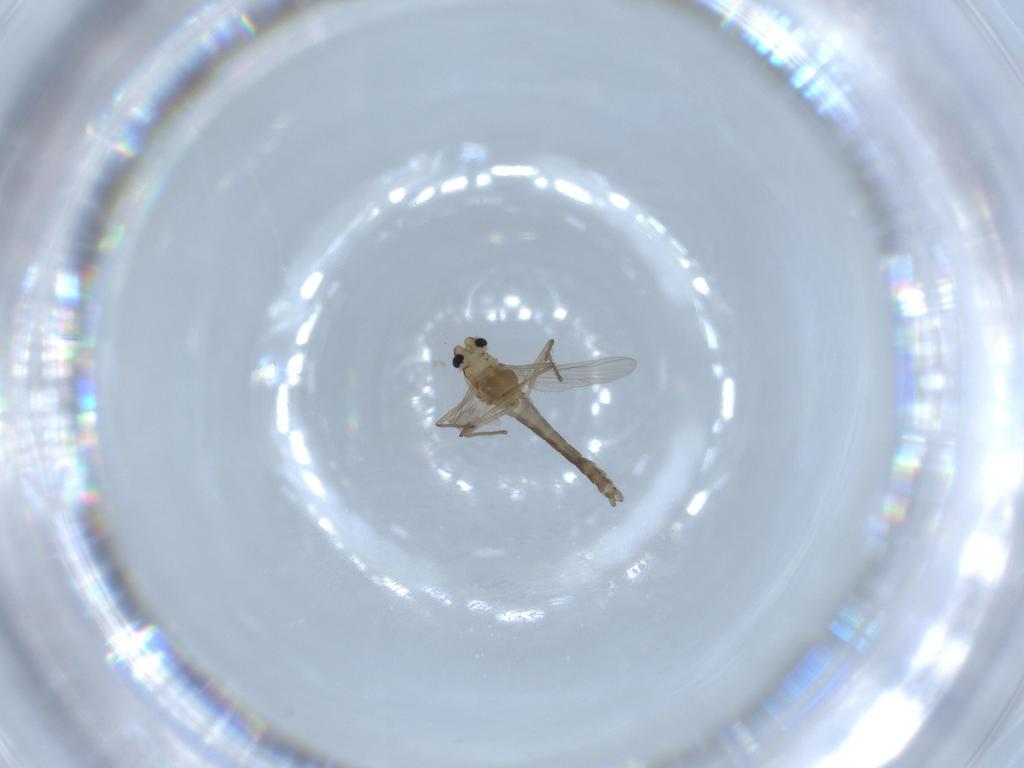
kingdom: Animalia
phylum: Arthropoda
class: Insecta
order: Diptera
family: Chironomidae
